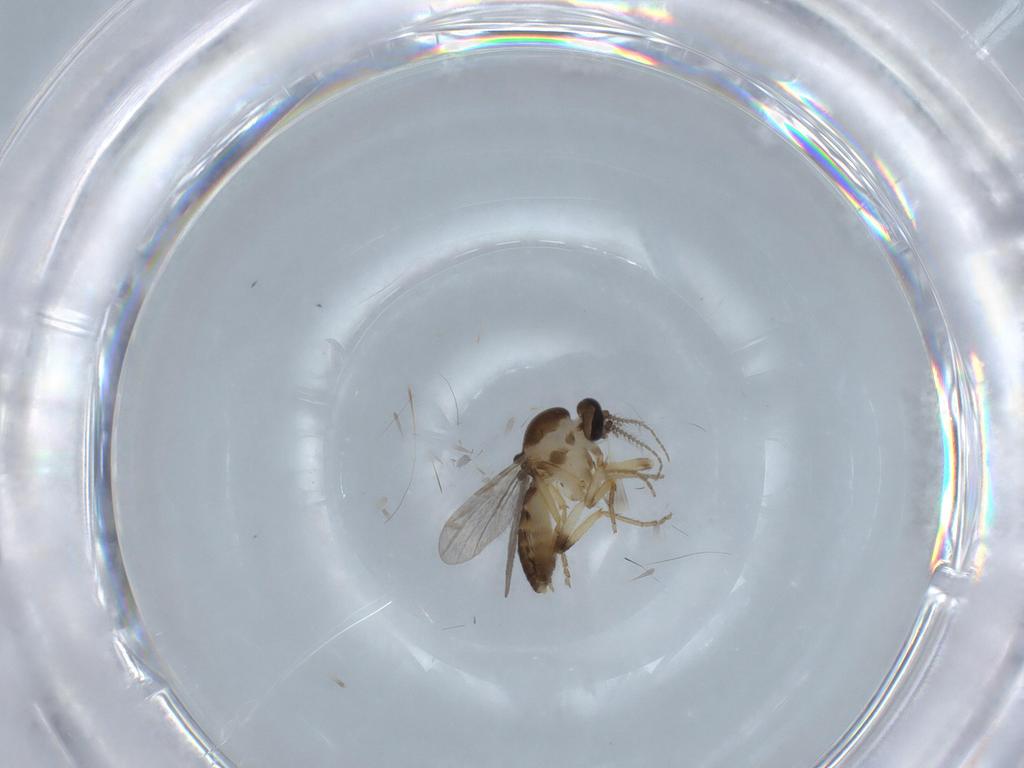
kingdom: Animalia
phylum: Arthropoda
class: Insecta
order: Diptera
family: Ceratopogonidae
